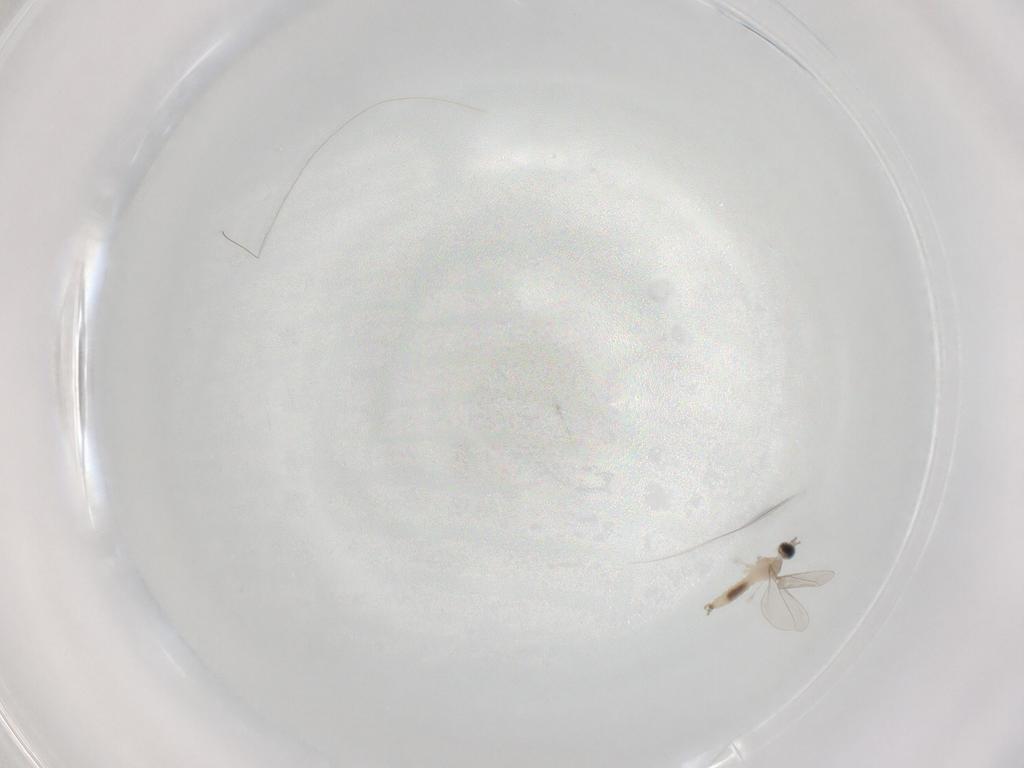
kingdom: Animalia
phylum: Arthropoda
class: Insecta
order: Diptera
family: Cecidomyiidae
